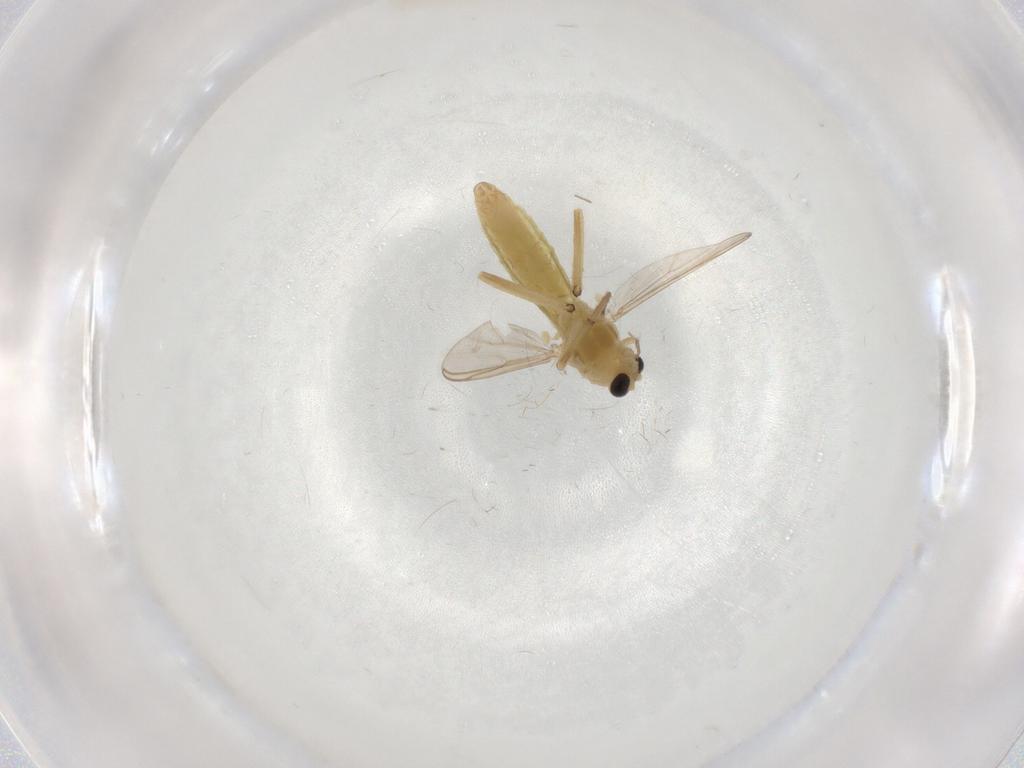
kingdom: Animalia
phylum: Arthropoda
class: Insecta
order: Diptera
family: Chironomidae
